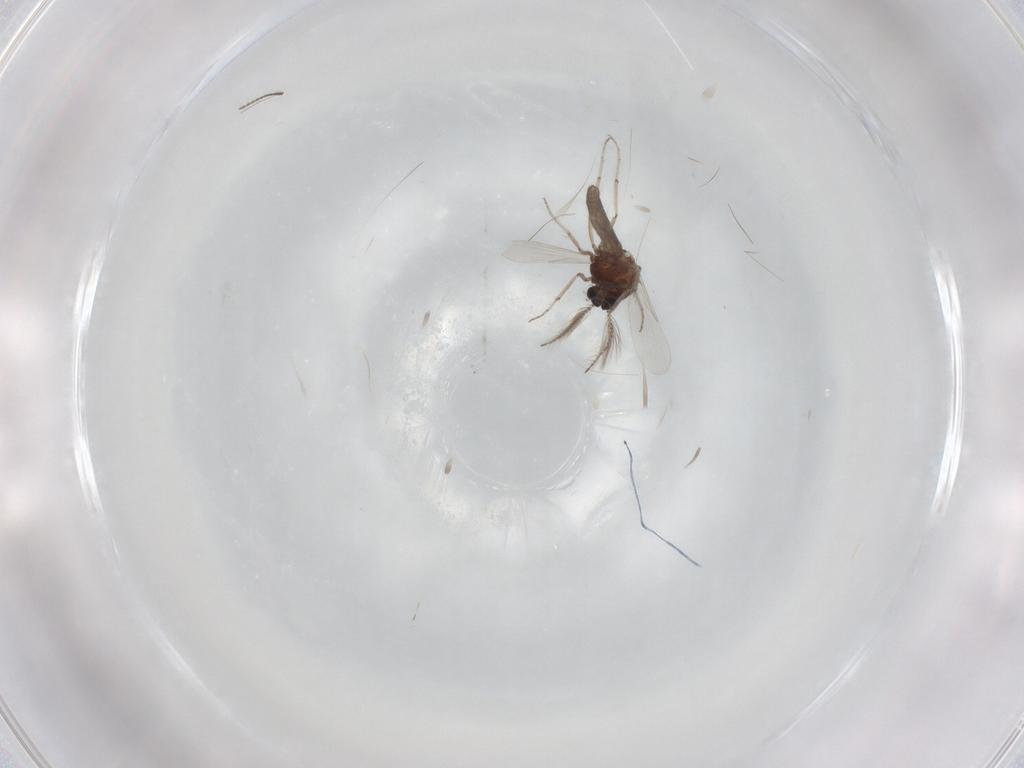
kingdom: Animalia
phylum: Arthropoda
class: Insecta
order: Diptera
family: Ceratopogonidae
